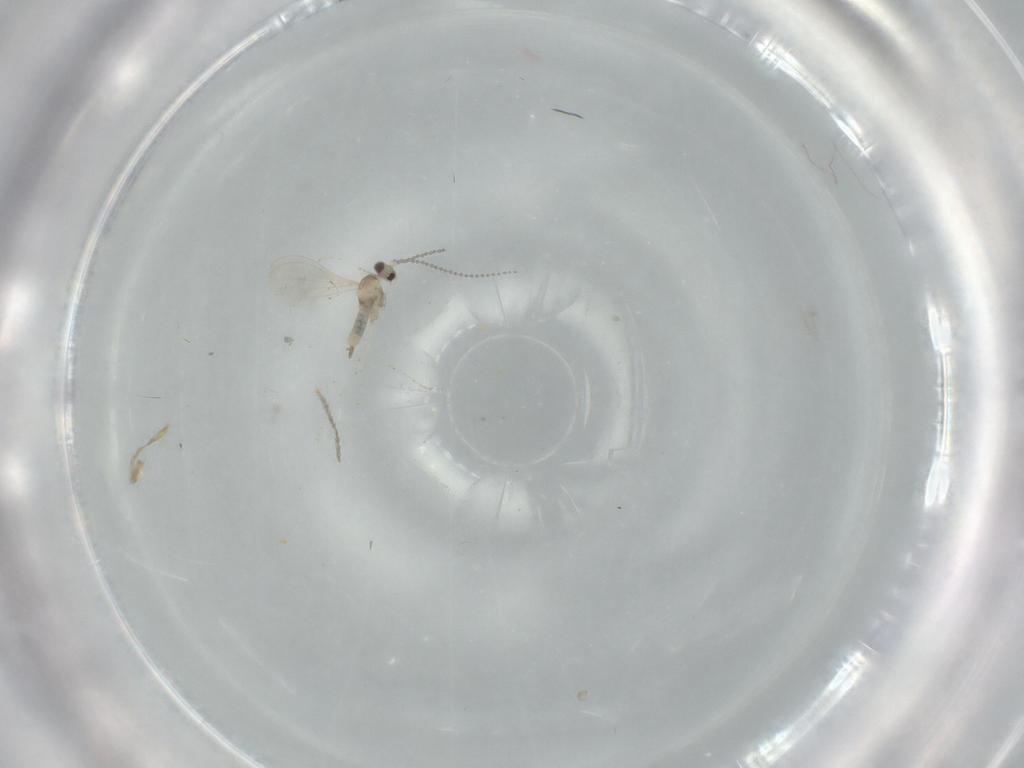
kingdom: Animalia
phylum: Arthropoda
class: Insecta
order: Diptera
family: Cecidomyiidae
